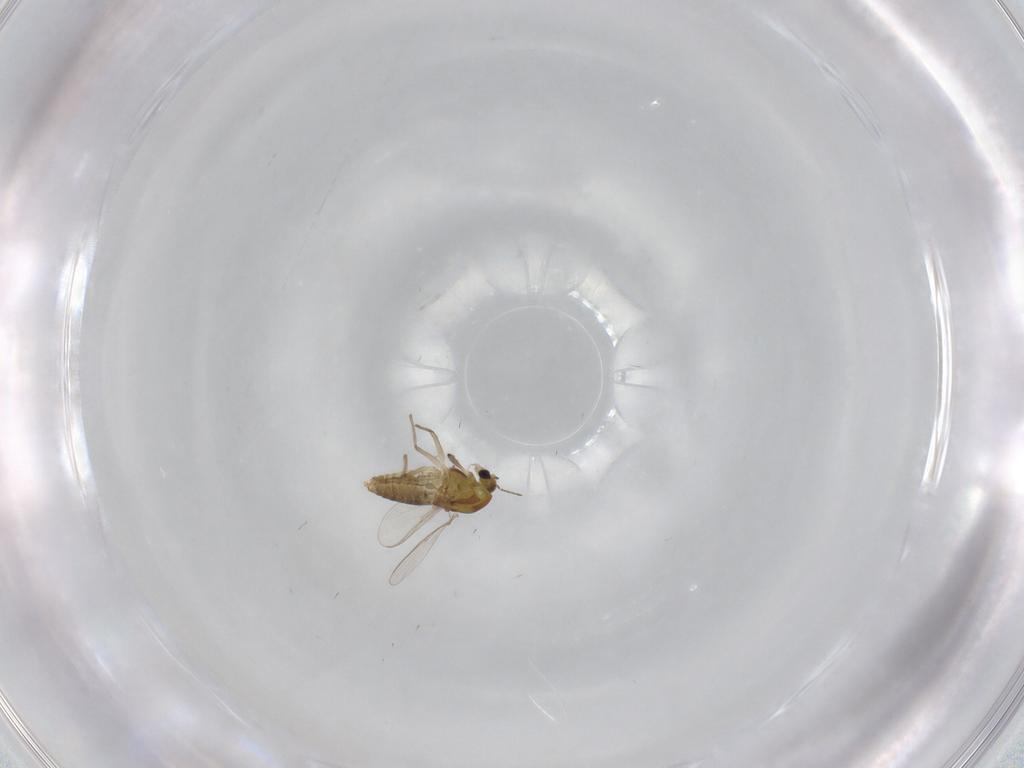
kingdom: Animalia
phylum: Arthropoda
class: Insecta
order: Diptera
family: Chironomidae
